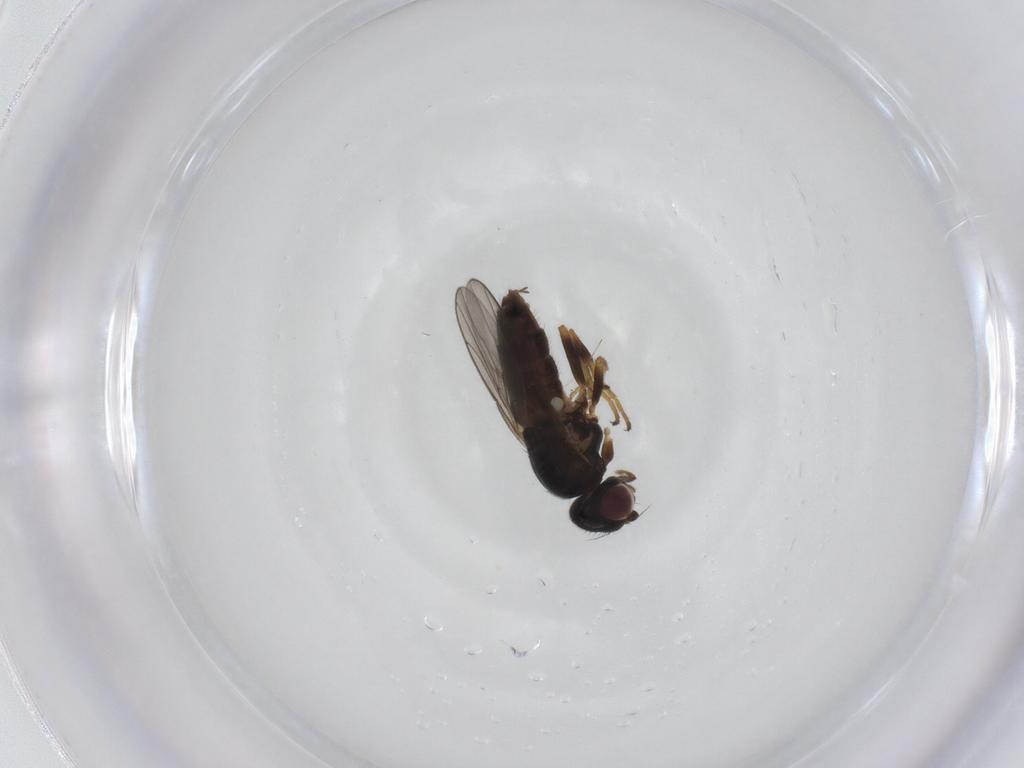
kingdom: Animalia
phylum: Arthropoda
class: Insecta
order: Diptera
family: Chloropidae
